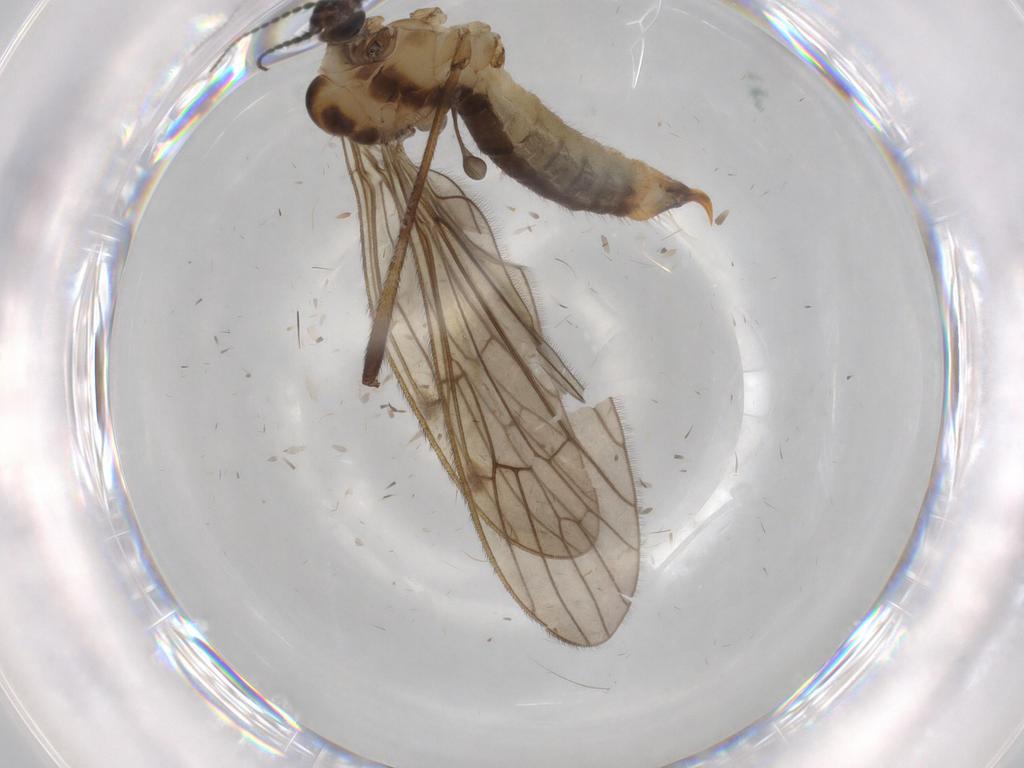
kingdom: Animalia
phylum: Arthropoda
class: Insecta
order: Diptera
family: Limoniidae
